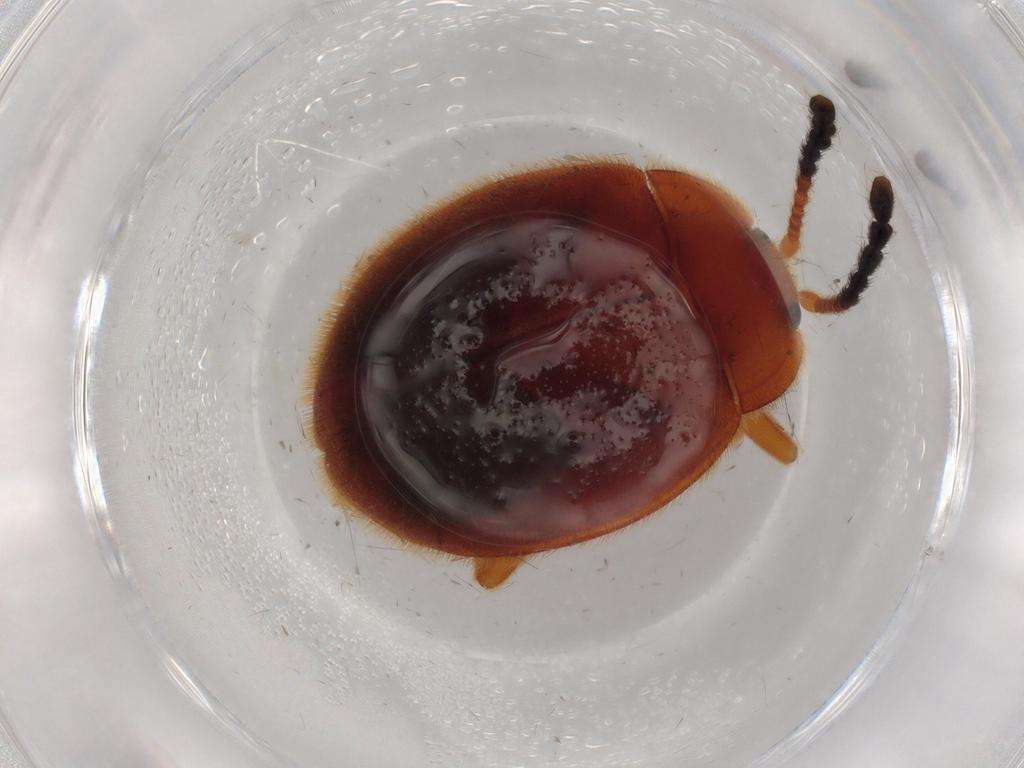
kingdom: Animalia
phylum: Arthropoda
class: Insecta
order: Coleoptera
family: Endomychidae
